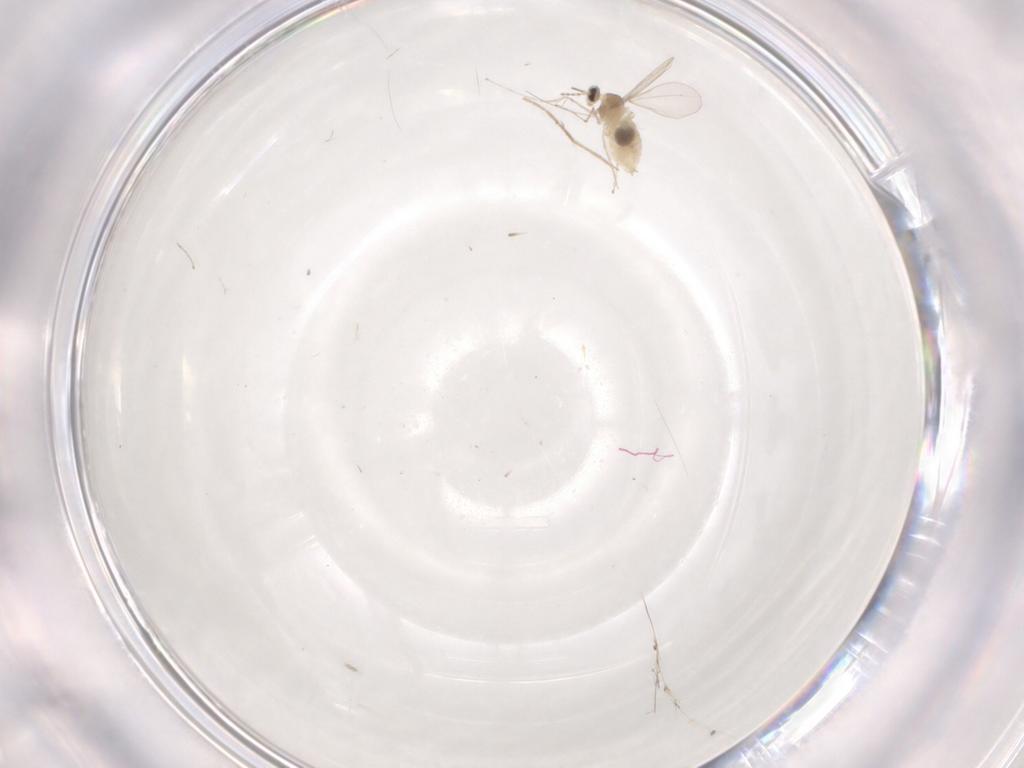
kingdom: Animalia
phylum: Arthropoda
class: Insecta
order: Diptera
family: Cecidomyiidae
